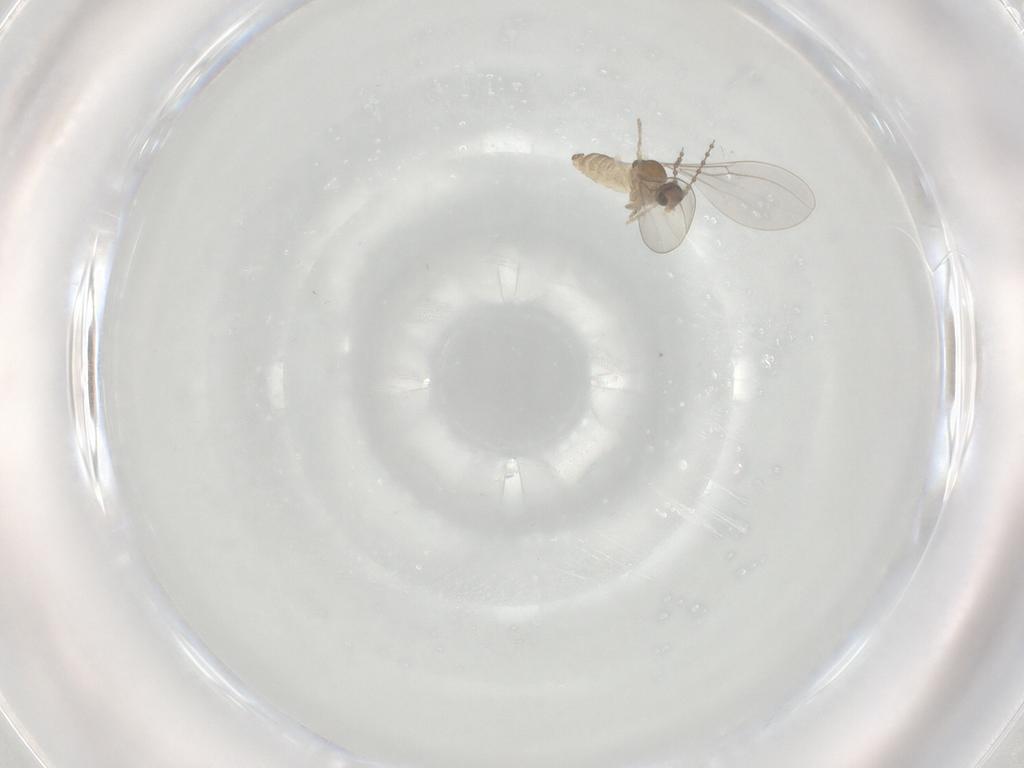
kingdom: Animalia
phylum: Arthropoda
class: Insecta
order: Diptera
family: Cecidomyiidae
